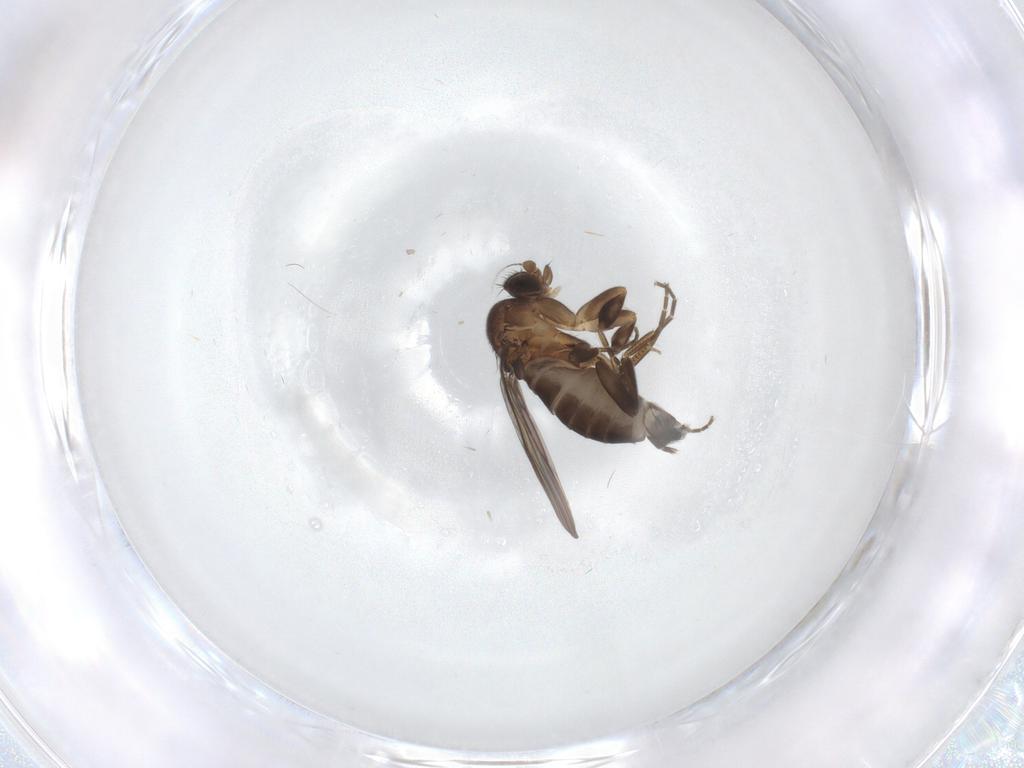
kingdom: Animalia
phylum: Arthropoda
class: Insecta
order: Diptera
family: Phoridae
